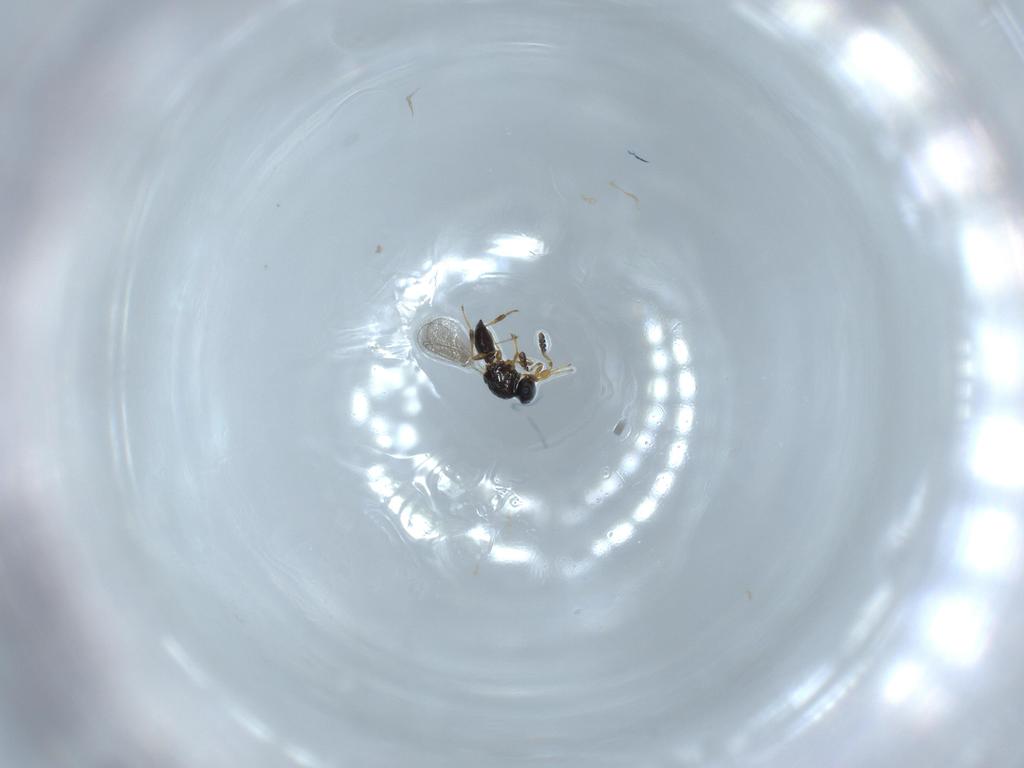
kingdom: Animalia
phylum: Arthropoda
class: Insecta
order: Hymenoptera
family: Platygastridae
